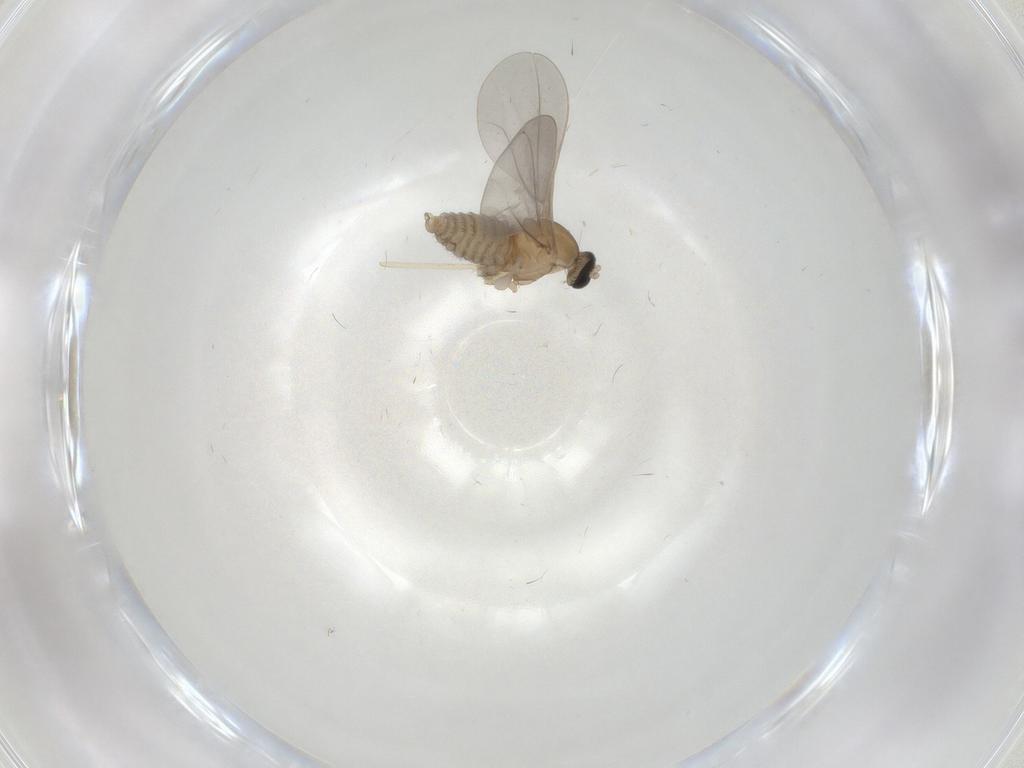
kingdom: Animalia
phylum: Arthropoda
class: Insecta
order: Diptera
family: Cecidomyiidae
